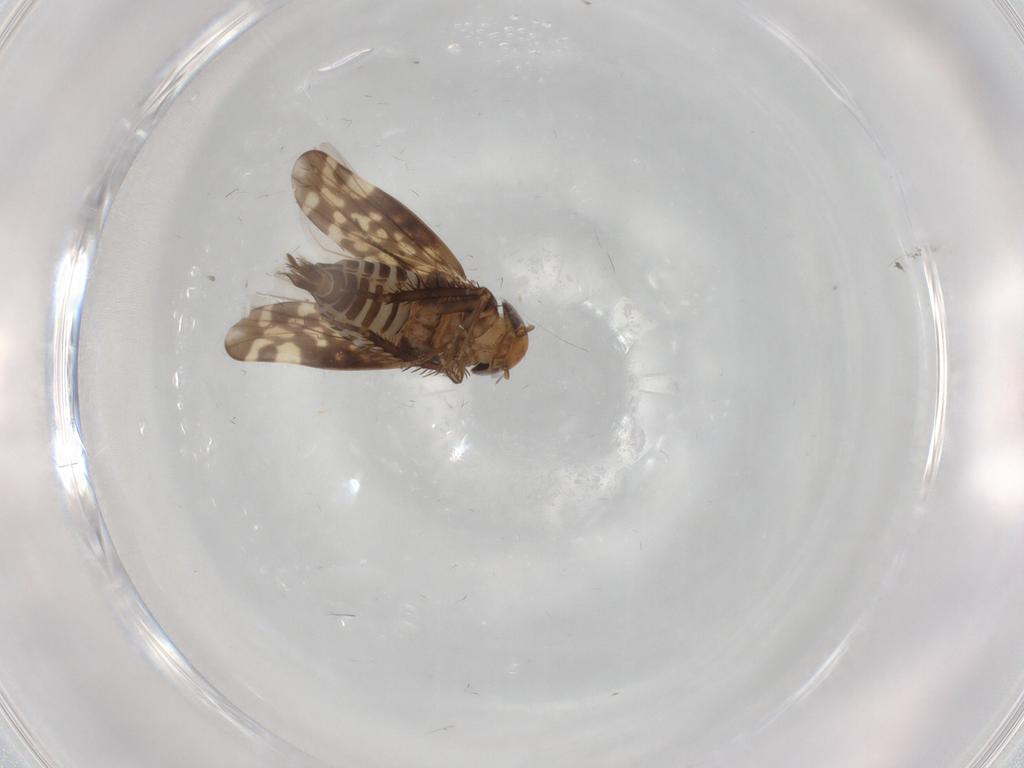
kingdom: Animalia
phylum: Arthropoda
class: Insecta
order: Hemiptera
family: Cicadellidae
